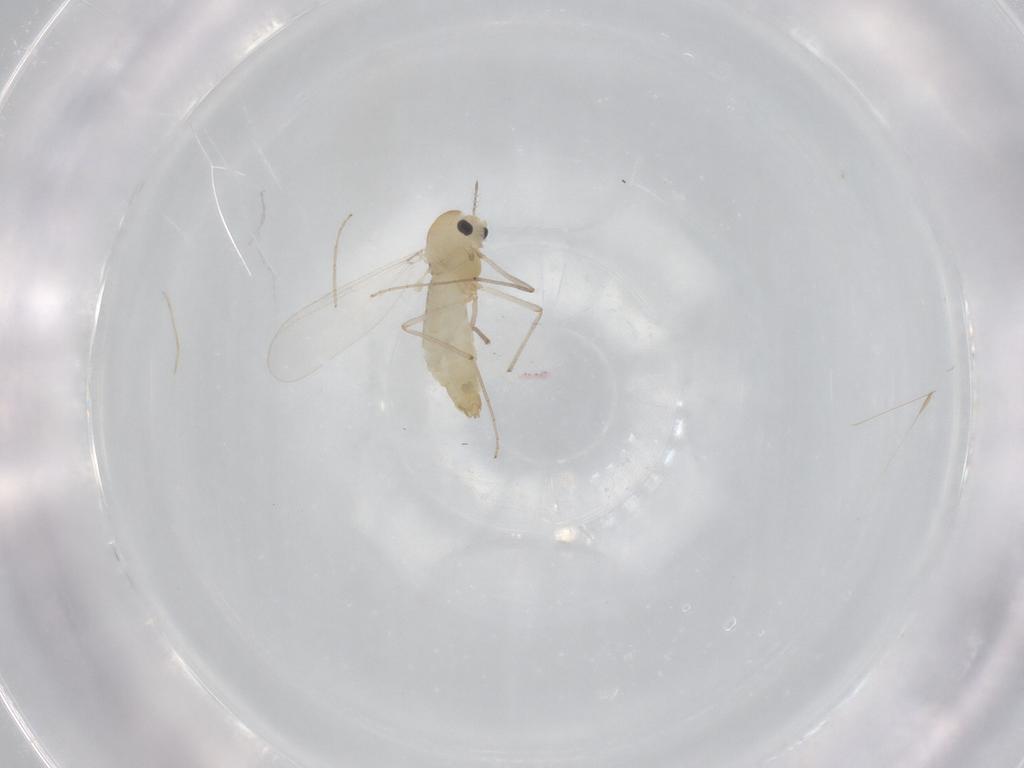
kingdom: Animalia
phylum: Arthropoda
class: Insecta
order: Diptera
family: Chironomidae
